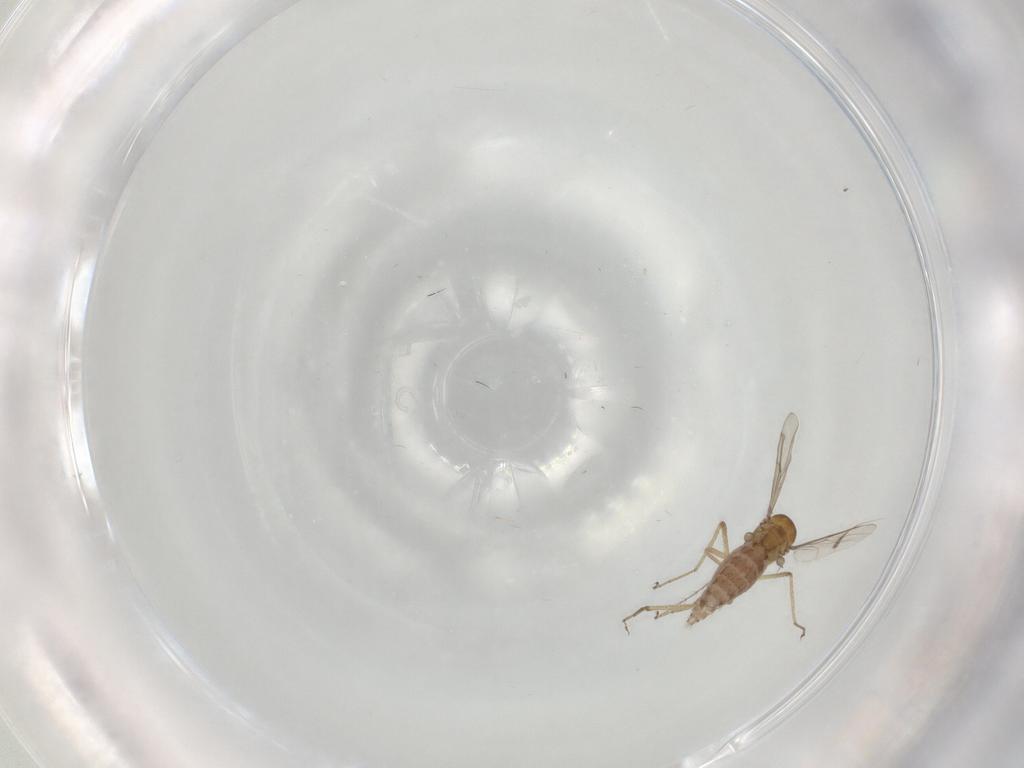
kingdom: Animalia
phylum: Arthropoda
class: Insecta
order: Diptera
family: Ceratopogonidae
